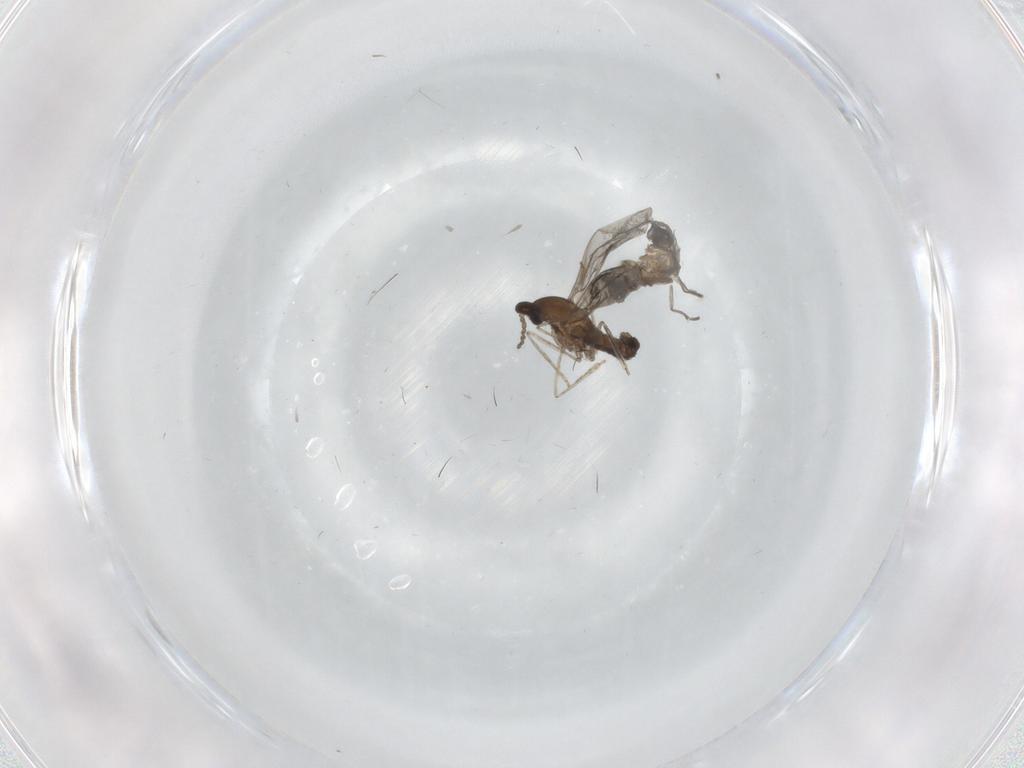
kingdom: Animalia
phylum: Arthropoda
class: Insecta
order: Diptera
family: Cecidomyiidae
